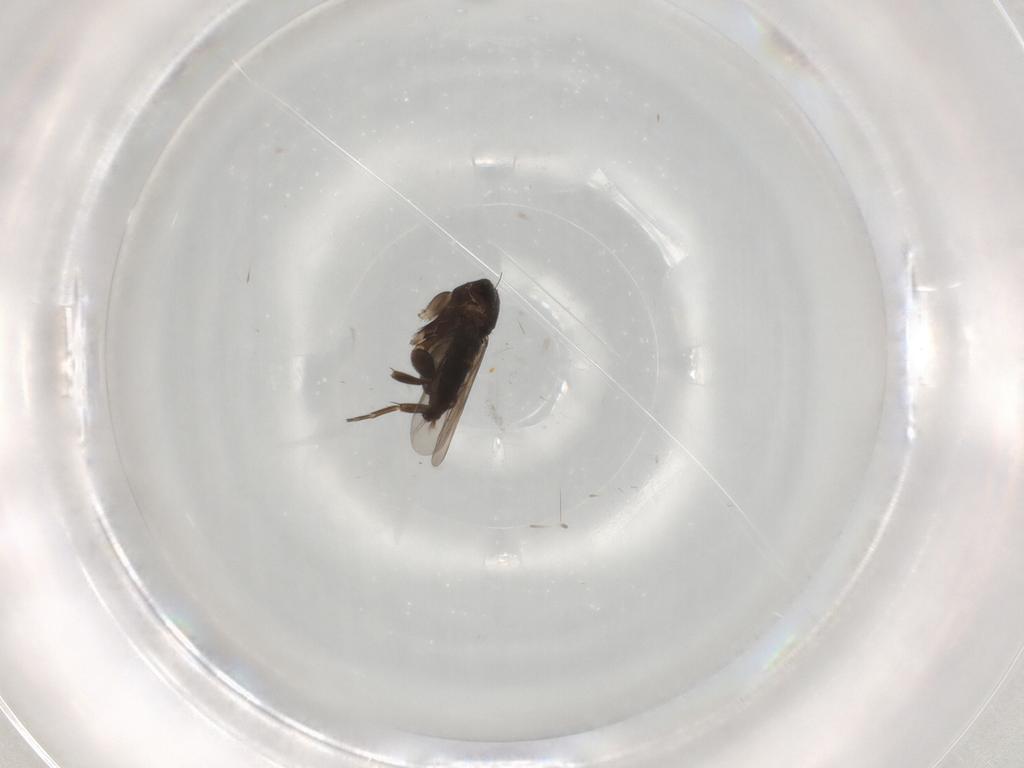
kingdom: Animalia
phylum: Arthropoda
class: Insecta
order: Diptera
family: Phoridae
